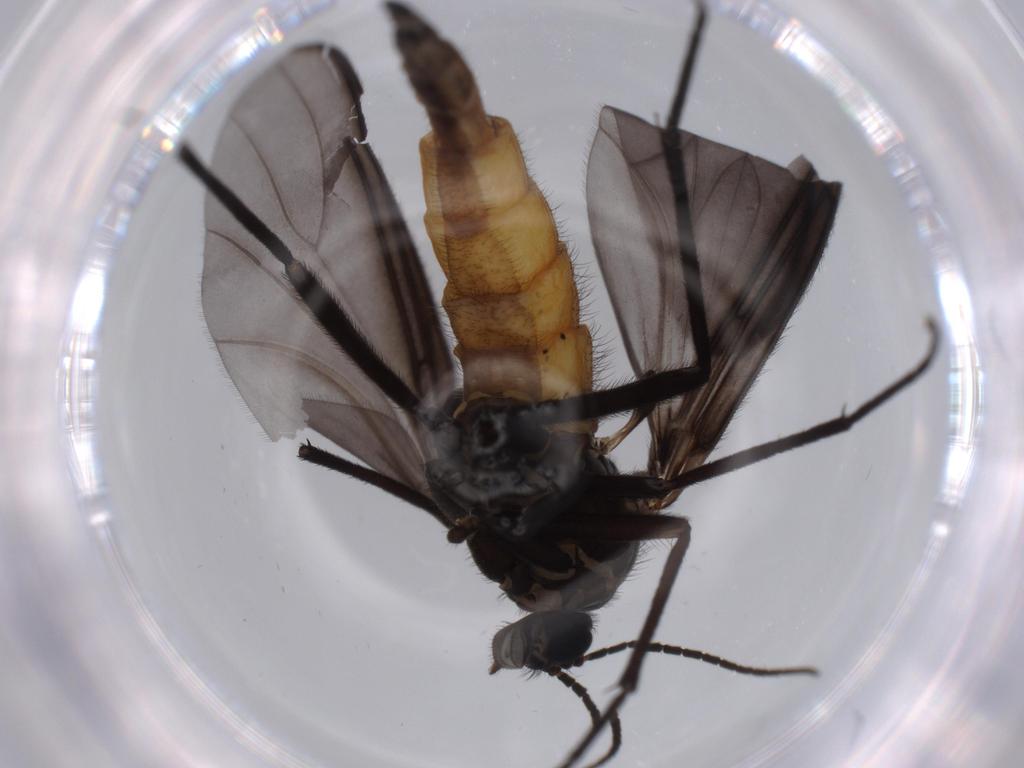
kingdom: Animalia
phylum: Arthropoda
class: Insecta
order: Diptera
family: Sciaridae
